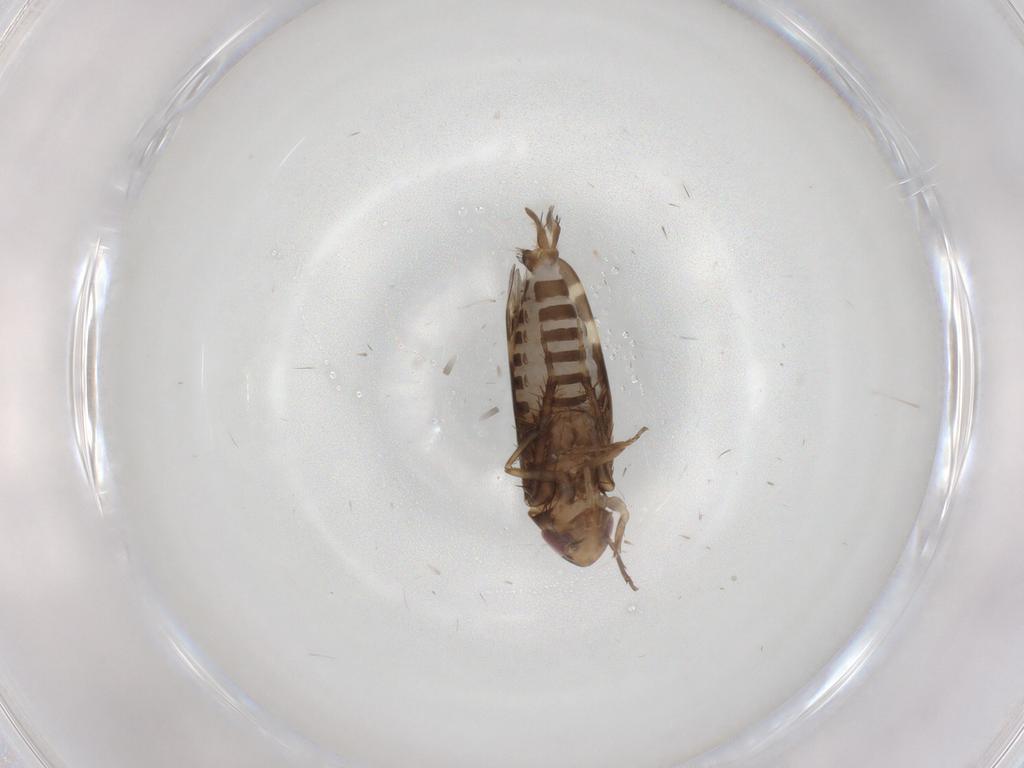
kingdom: Animalia
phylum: Arthropoda
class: Insecta
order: Hemiptera
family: Cicadellidae
